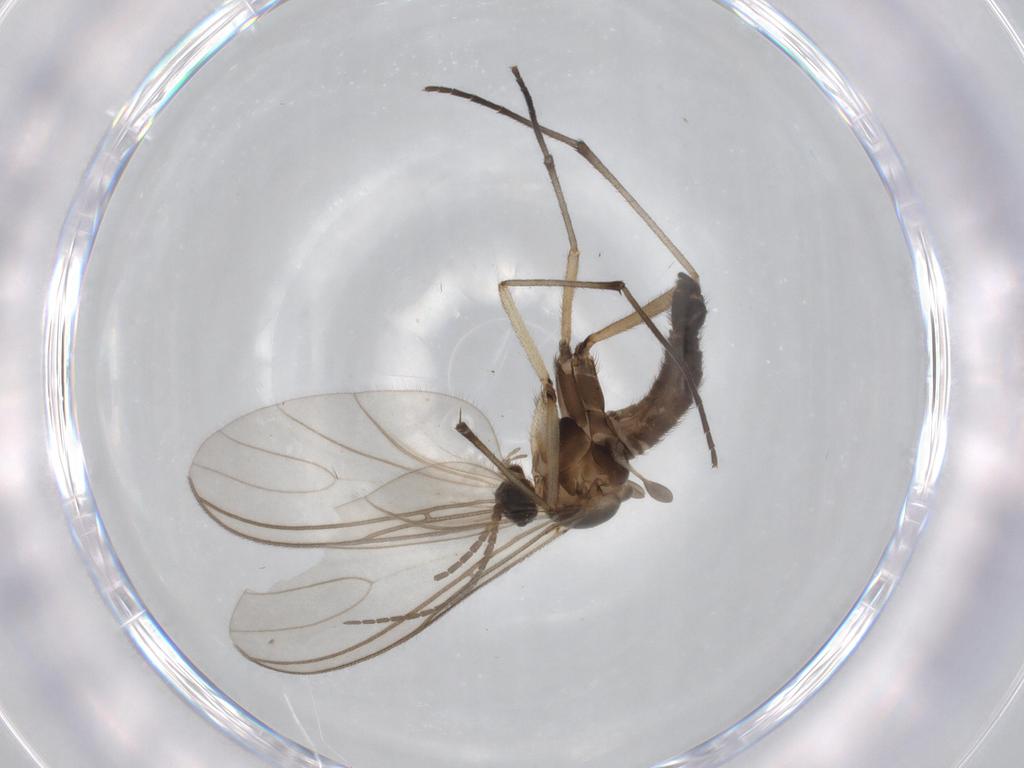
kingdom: Animalia
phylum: Arthropoda
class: Insecta
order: Diptera
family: Sciaridae
